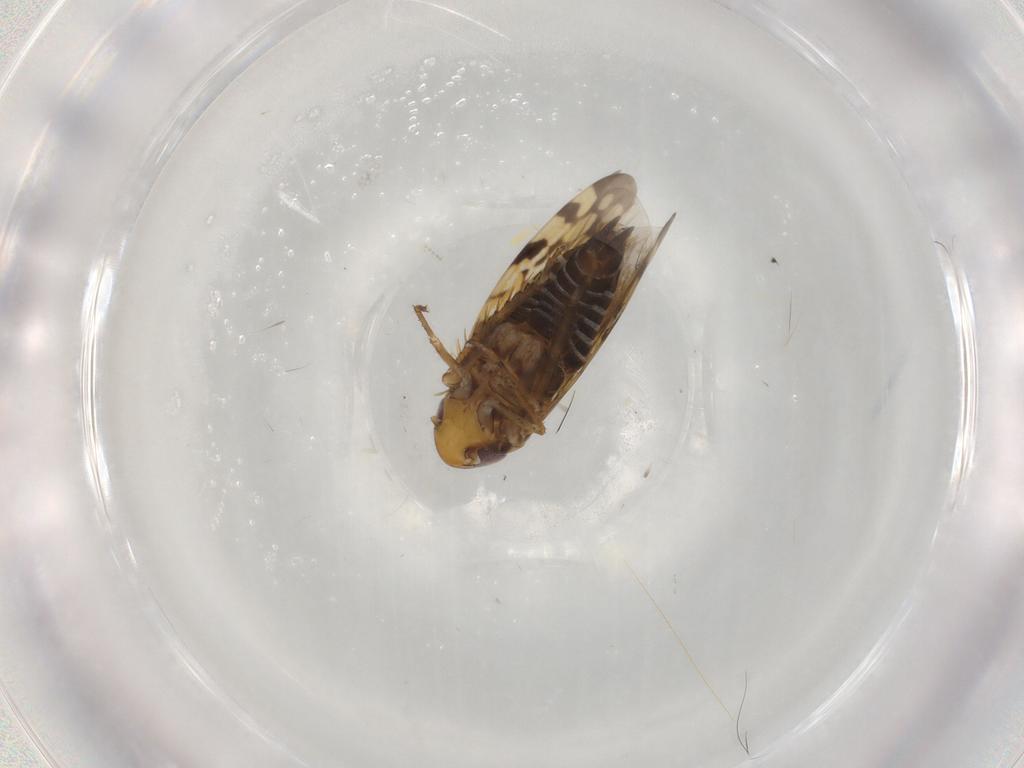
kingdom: Animalia
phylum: Arthropoda
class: Insecta
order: Hemiptera
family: Cicadellidae
